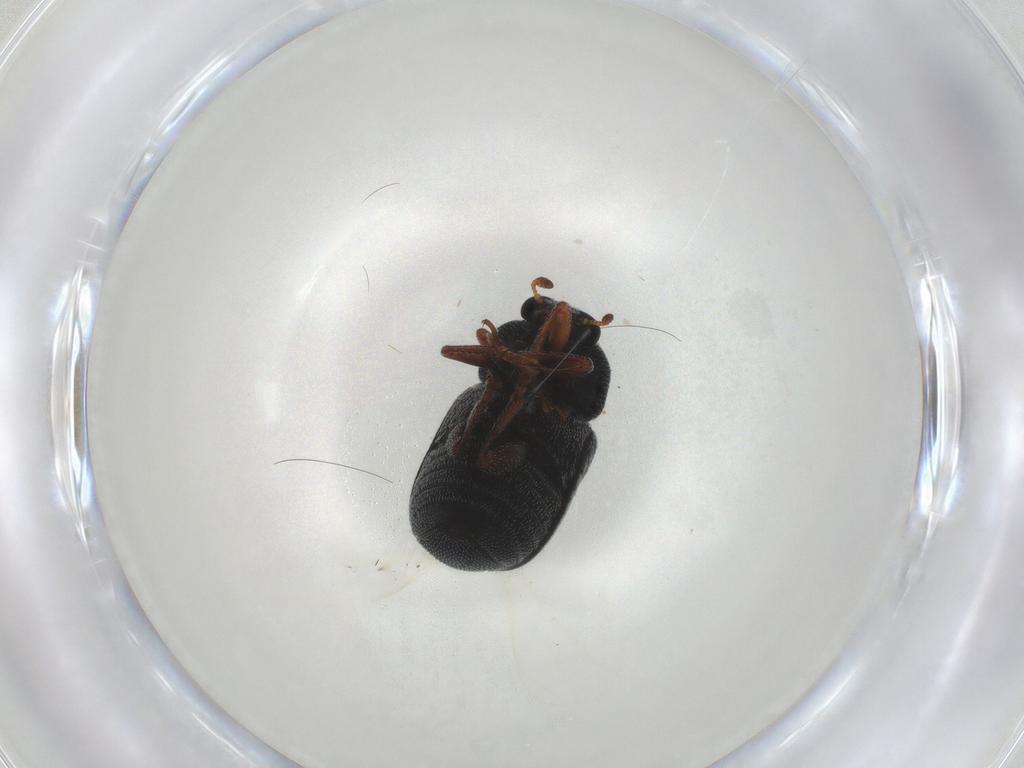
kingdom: Animalia
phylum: Arthropoda
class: Insecta
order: Coleoptera
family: Anthribidae
